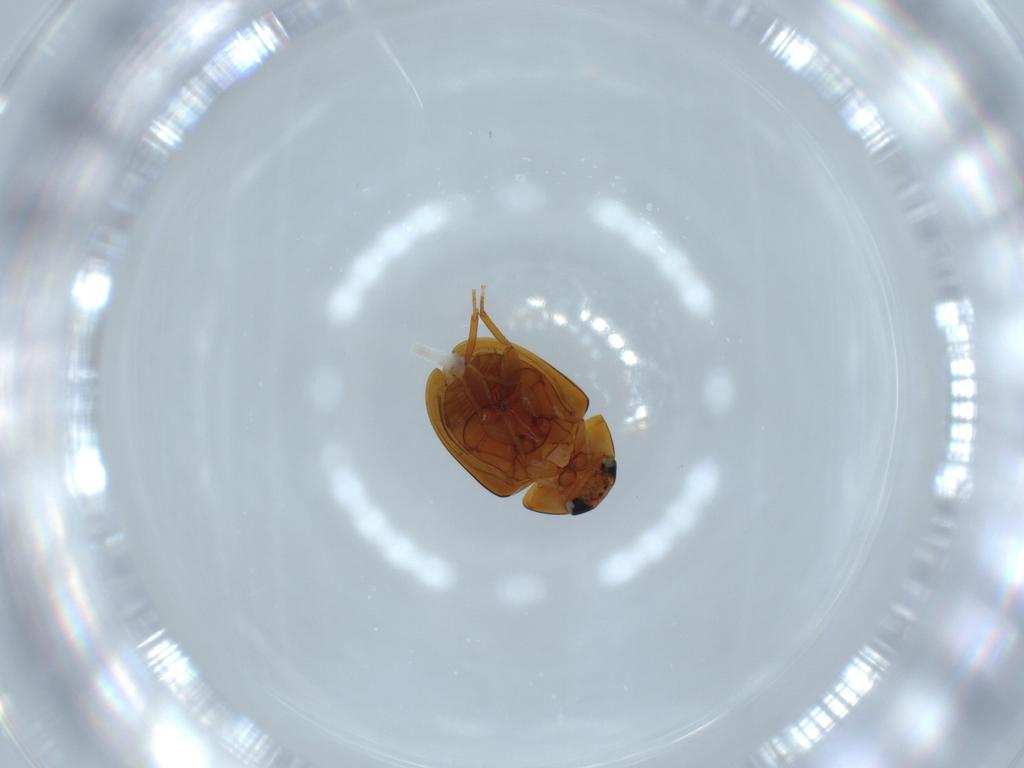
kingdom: Animalia
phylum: Arthropoda
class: Insecta
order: Coleoptera
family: Phalacridae
